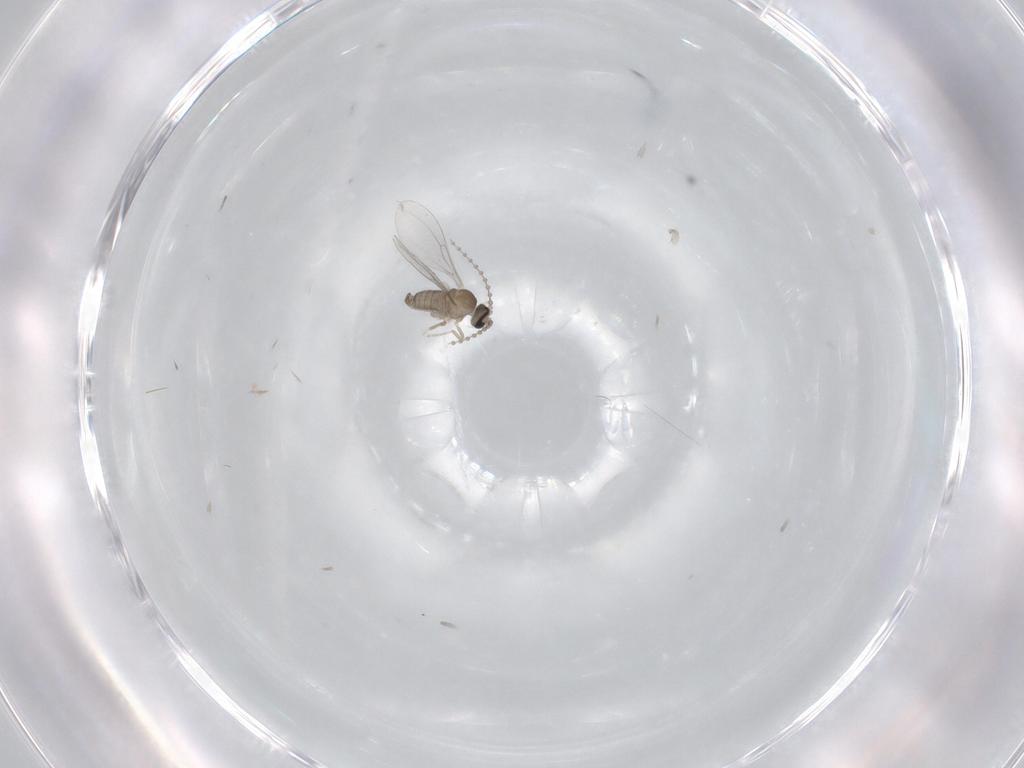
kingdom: Animalia
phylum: Arthropoda
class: Insecta
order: Diptera
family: Cecidomyiidae
